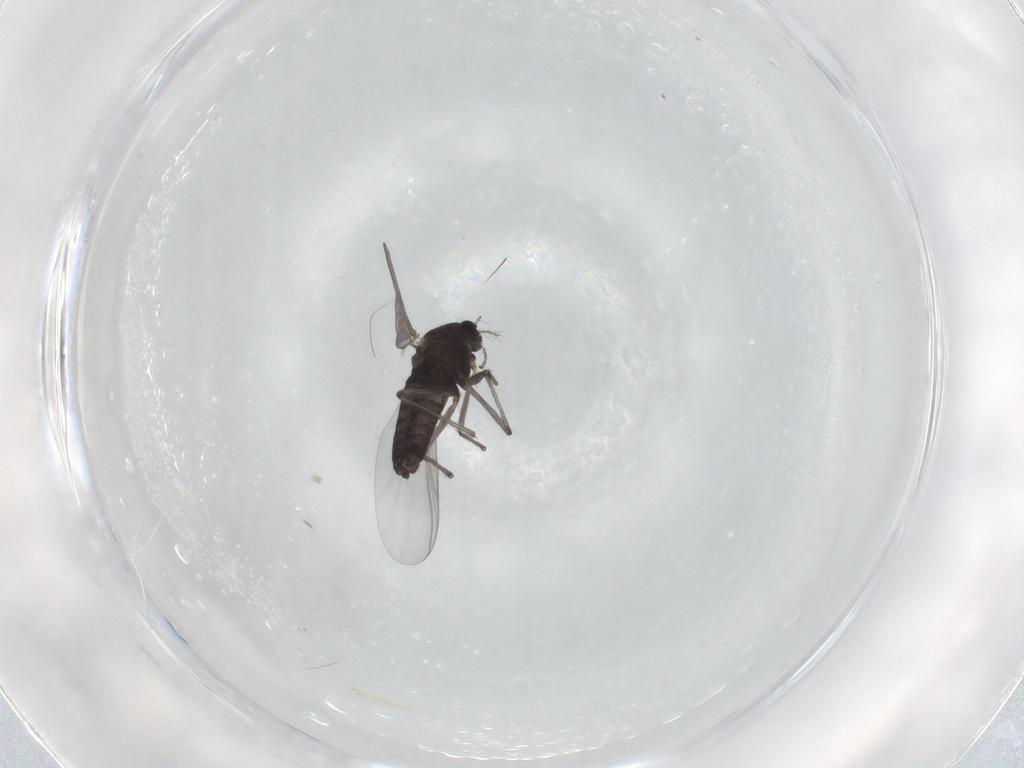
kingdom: Animalia
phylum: Arthropoda
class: Insecta
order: Diptera
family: Chironomidae
